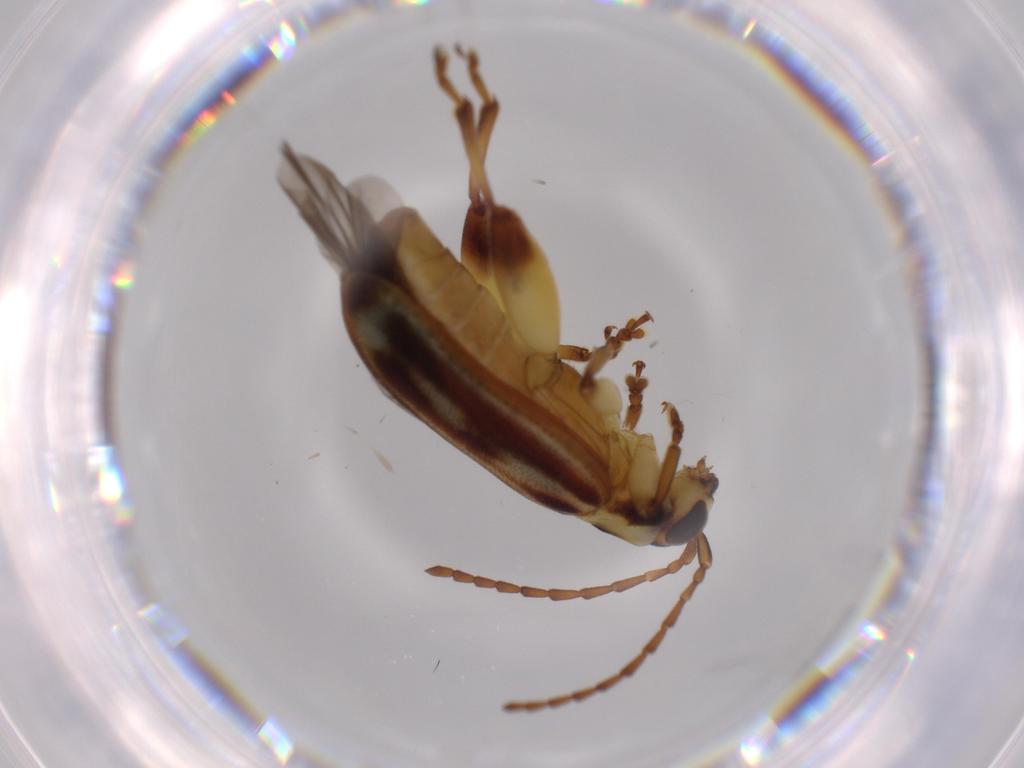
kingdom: Animalia
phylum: Arthropoda
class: Insecta
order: Coleoptera
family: Chrysomelidae
